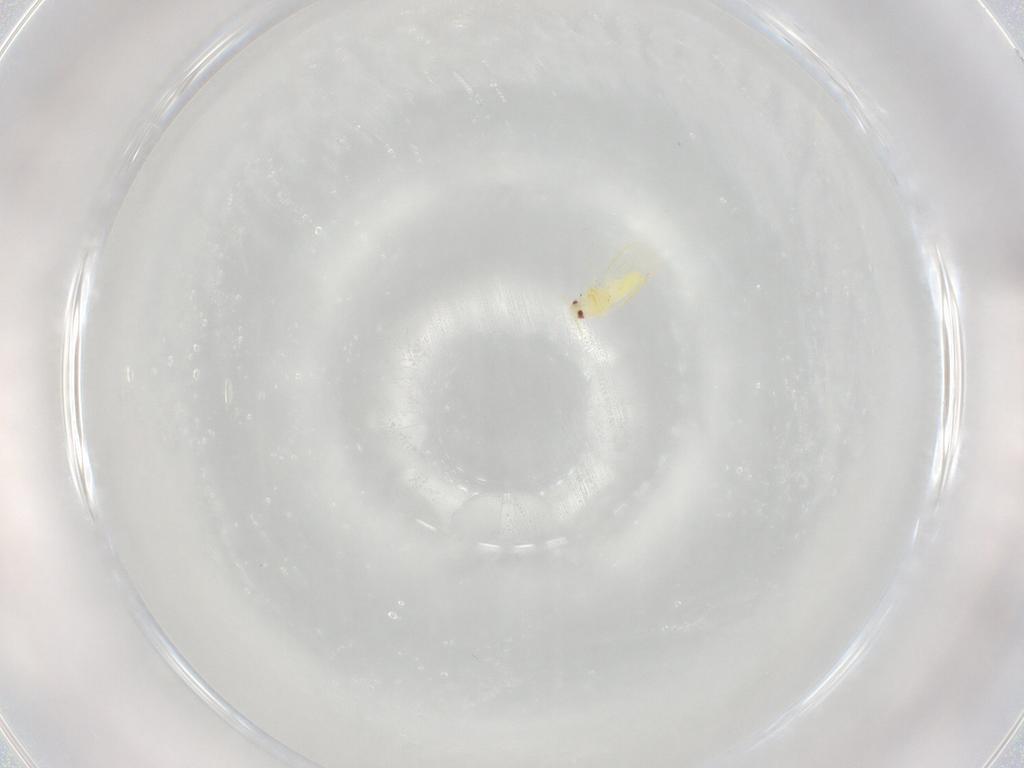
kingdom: Animalia
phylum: Arthropoda
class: Insecta
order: Hemiptera
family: Aleyrodidae
